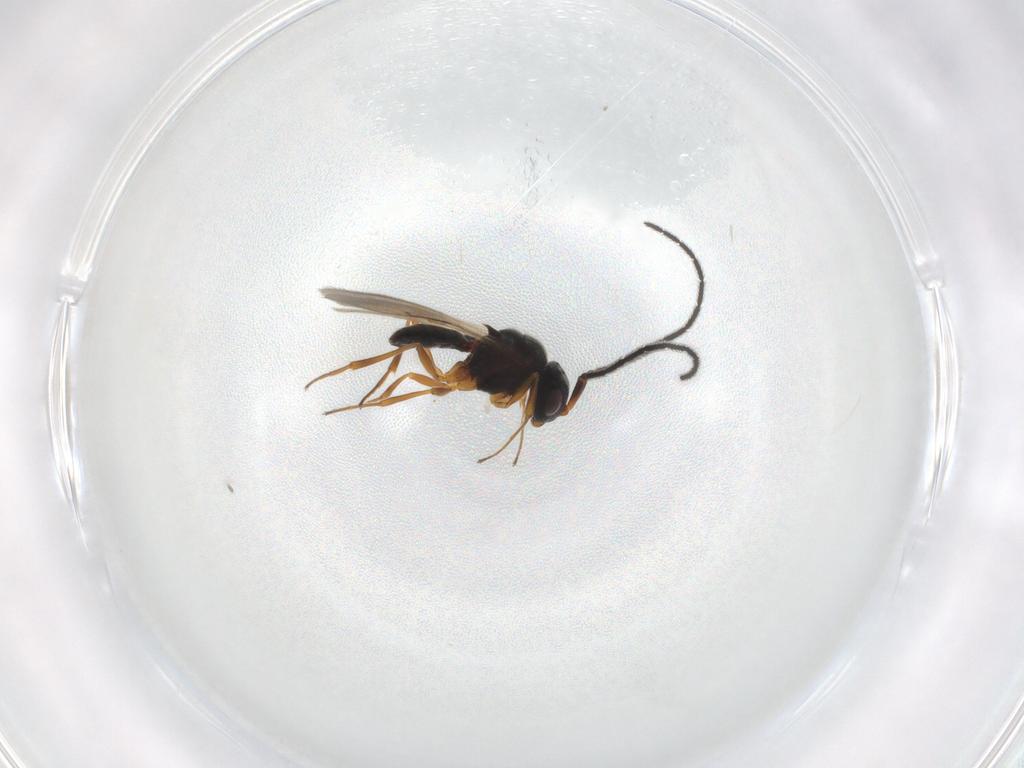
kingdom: Animalia
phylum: Arthropoda
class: Insecta
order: Hymenoptera
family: Scelionidae
